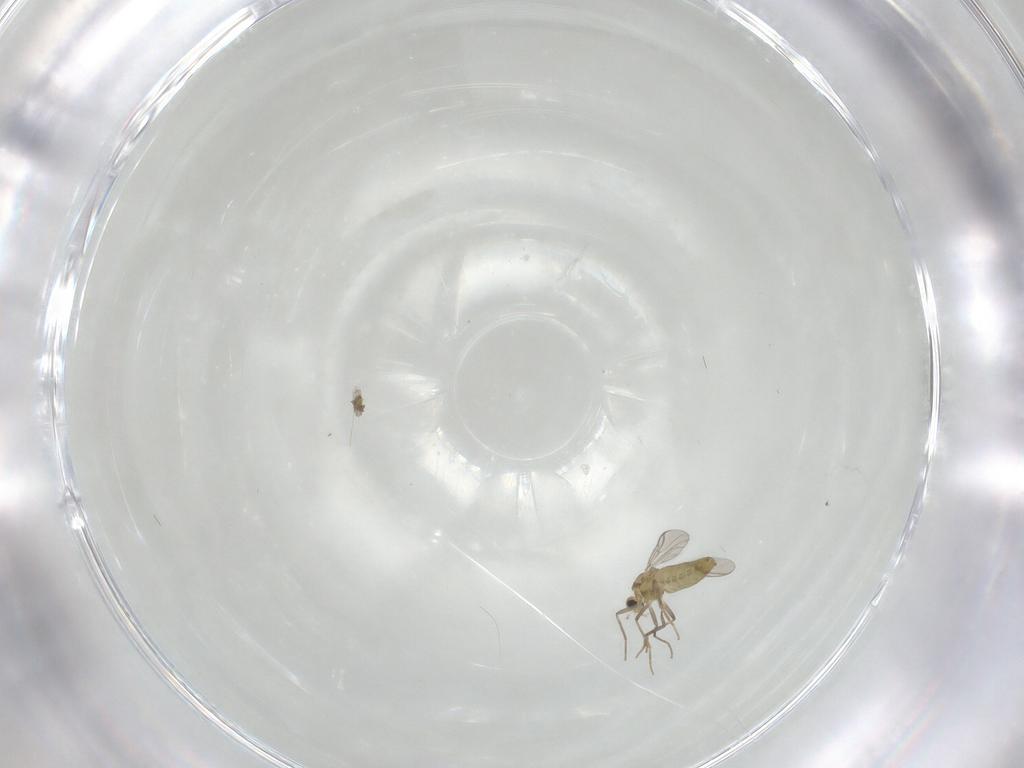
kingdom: Animalia
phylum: Arthropoda
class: Insecta
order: Diptera
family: Chironomidae
